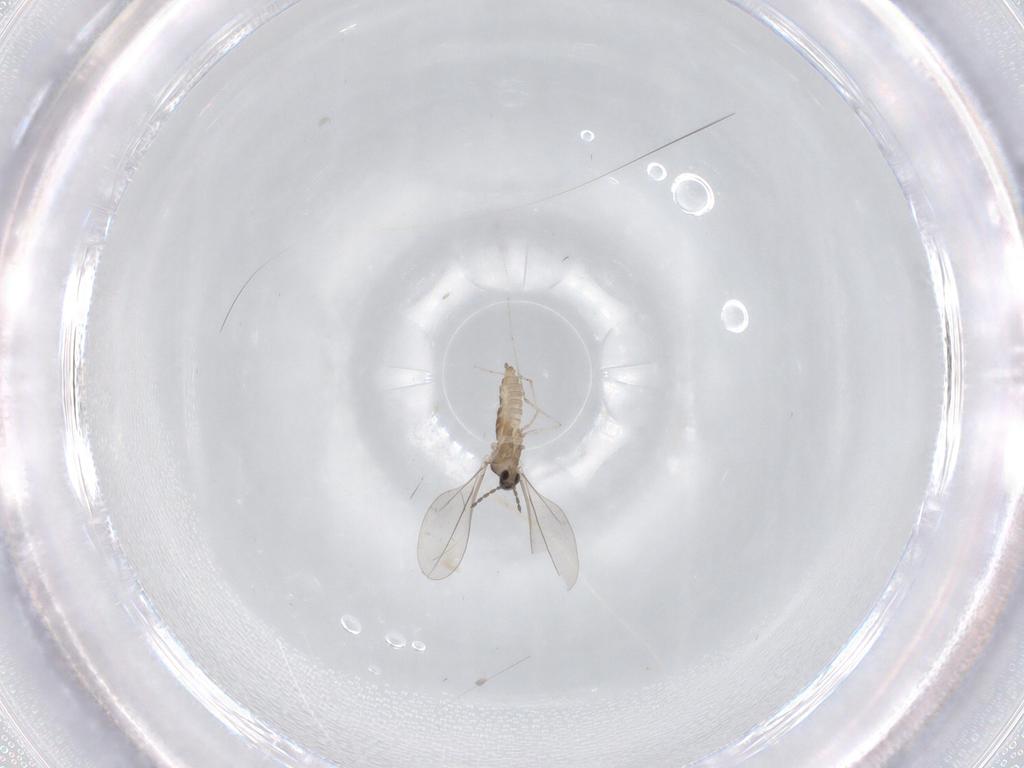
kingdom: Animalia
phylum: Arthropoda
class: Insecta
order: Diptera
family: Cecidomyiidae
